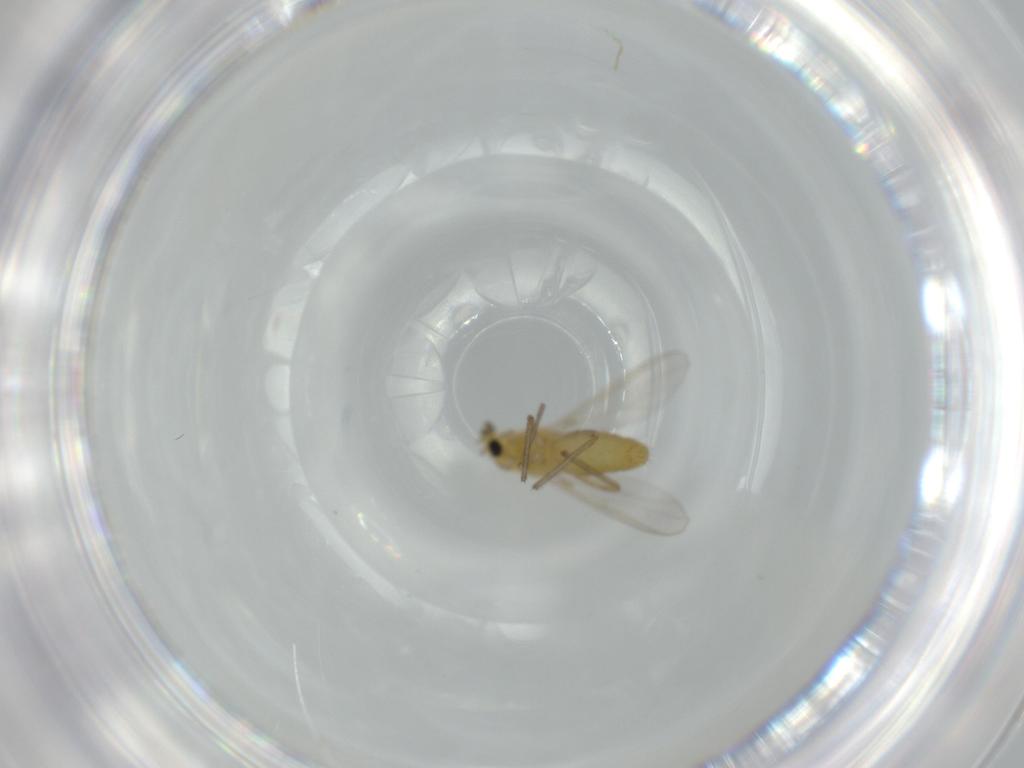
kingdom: Animalia
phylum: Arthropoda
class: Insecta
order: Diptera
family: Chironomidae
